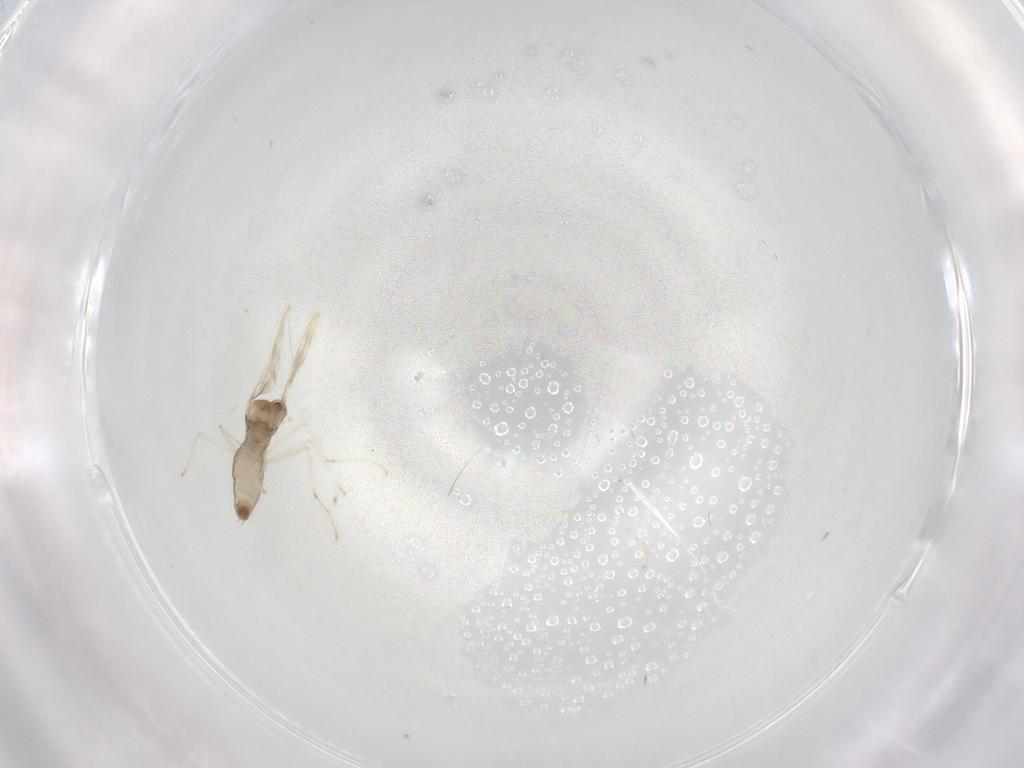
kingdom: Animalia
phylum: Arthropoda
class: Insecta
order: Diptera
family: Cecidomyiidae
